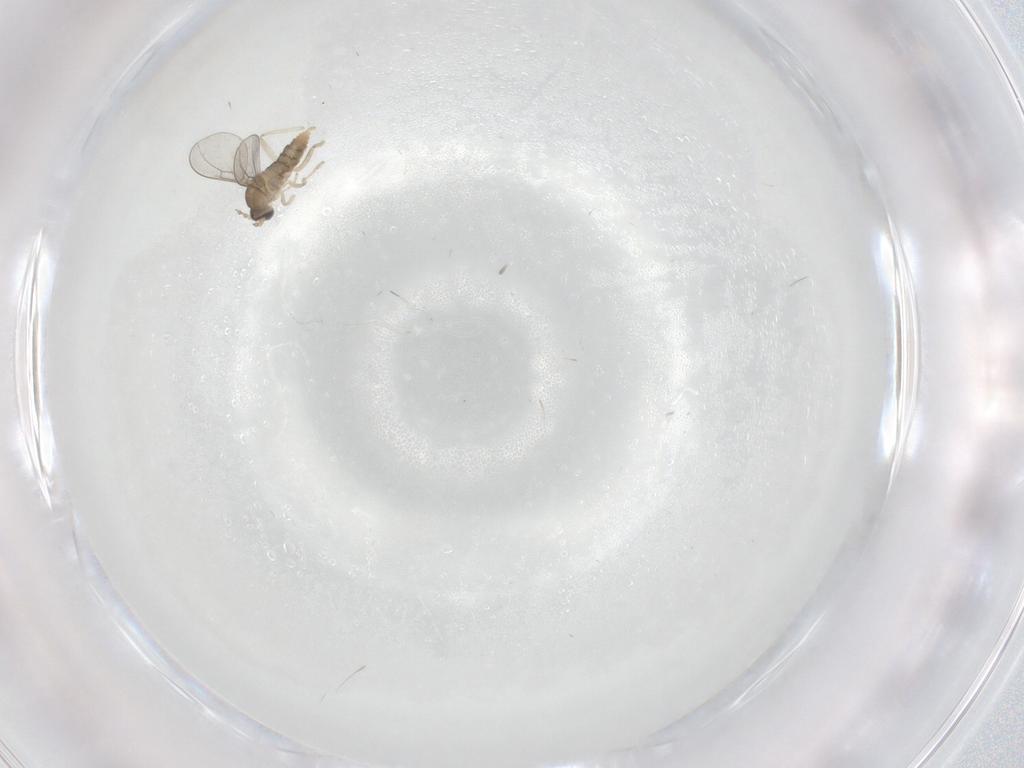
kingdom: Animalia
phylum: Arthropoda
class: Insecta
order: Diptera
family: Cecidomyiidae
